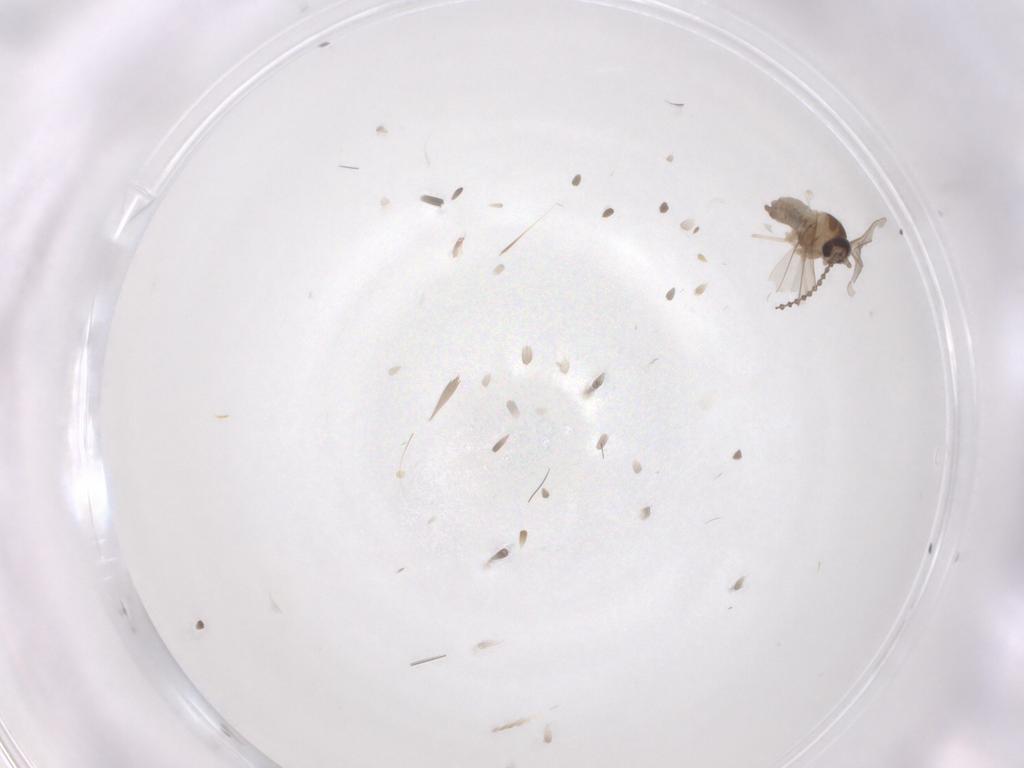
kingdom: Animalia
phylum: Arthropoda
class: Insecta
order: Diptera
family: Cecidomyiidae
